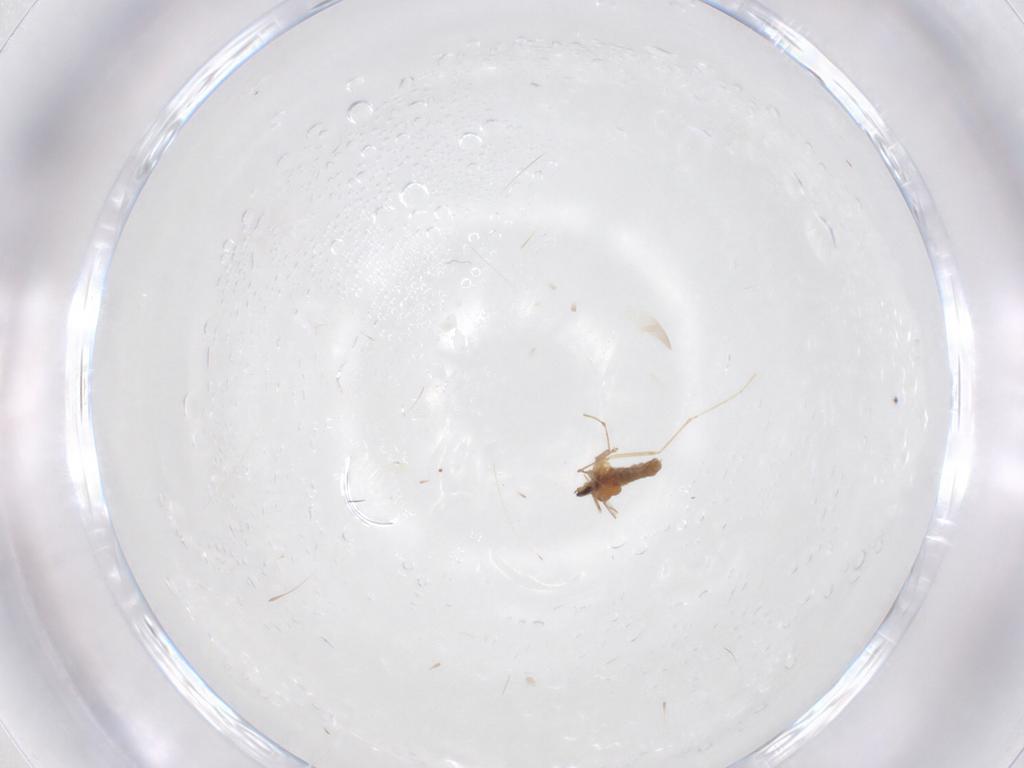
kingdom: Animalia
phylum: Arthropoda
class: Insecta
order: Diptera
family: Cecidomyiidae
